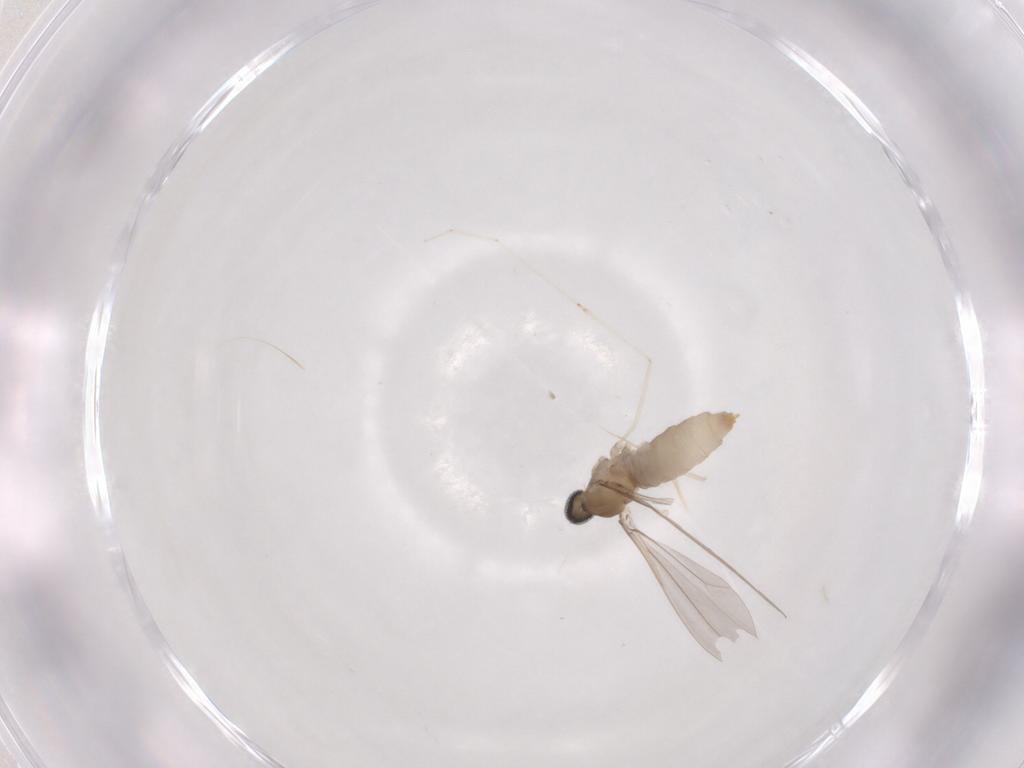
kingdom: Animalia
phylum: Arthropoda
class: Insecta
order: Diptera
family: Cecidomyiidae
